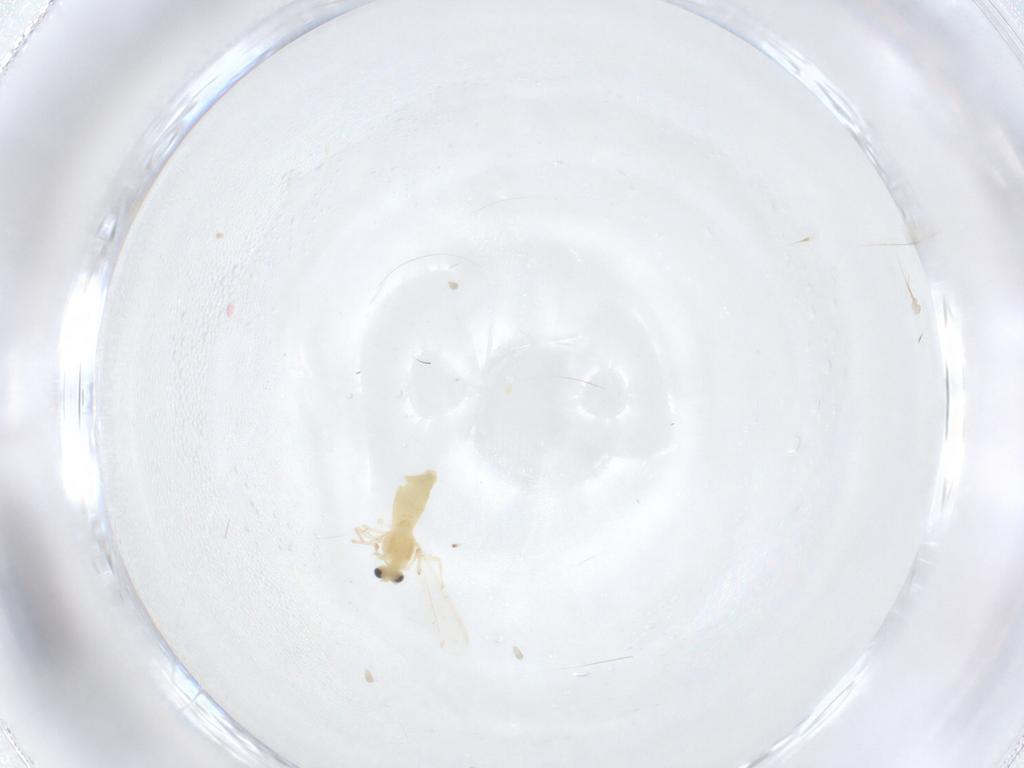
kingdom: Animalia
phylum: Arthropoda
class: Insecta
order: Diptera
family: Chironomidae
